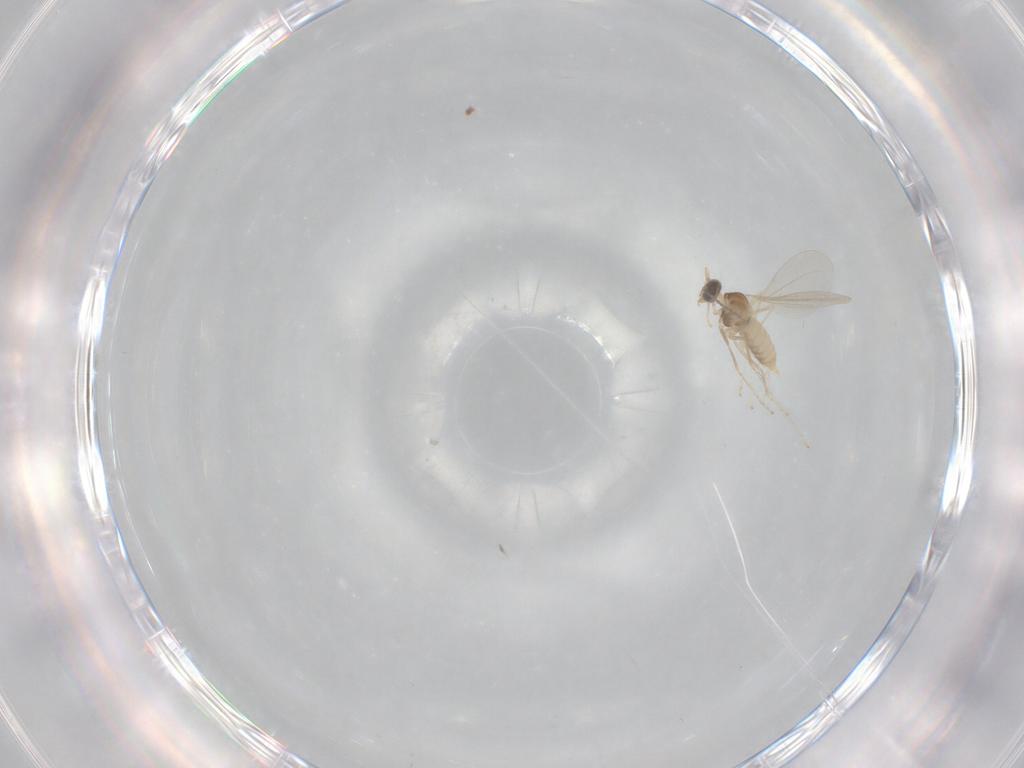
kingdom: Animalia
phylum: Arthropoda
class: Insecta
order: Diptera
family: Cecidomyiidae
